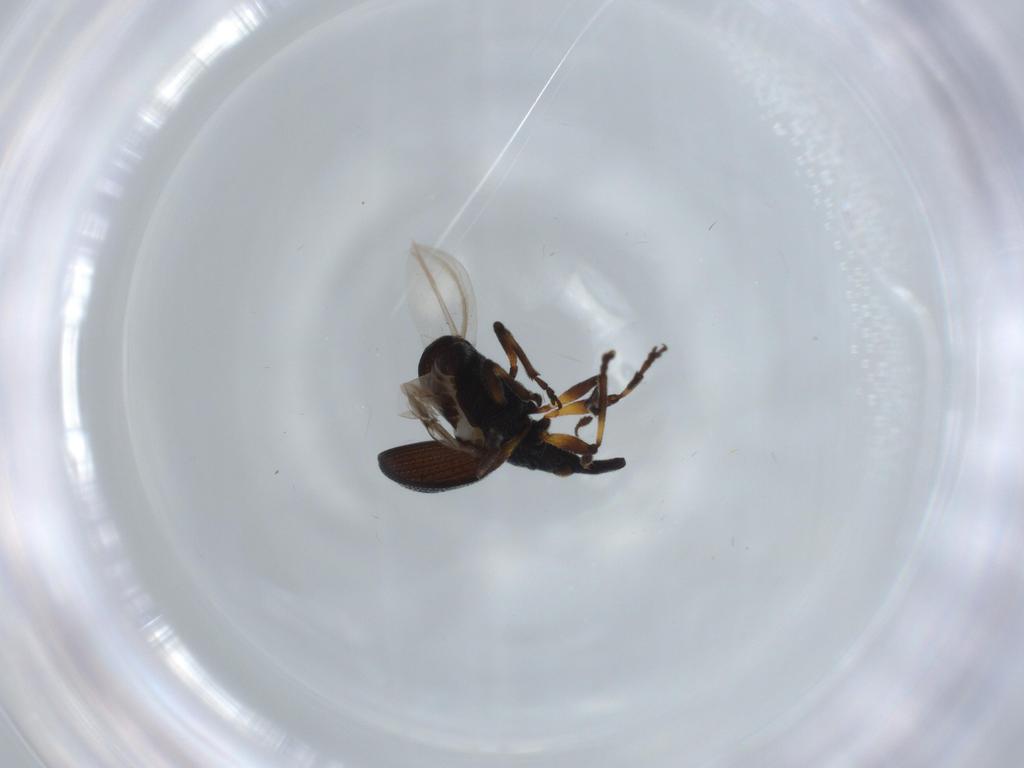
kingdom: Animalia
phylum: Arthropoda
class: Insecta
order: Coleoptera
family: Brentidae
